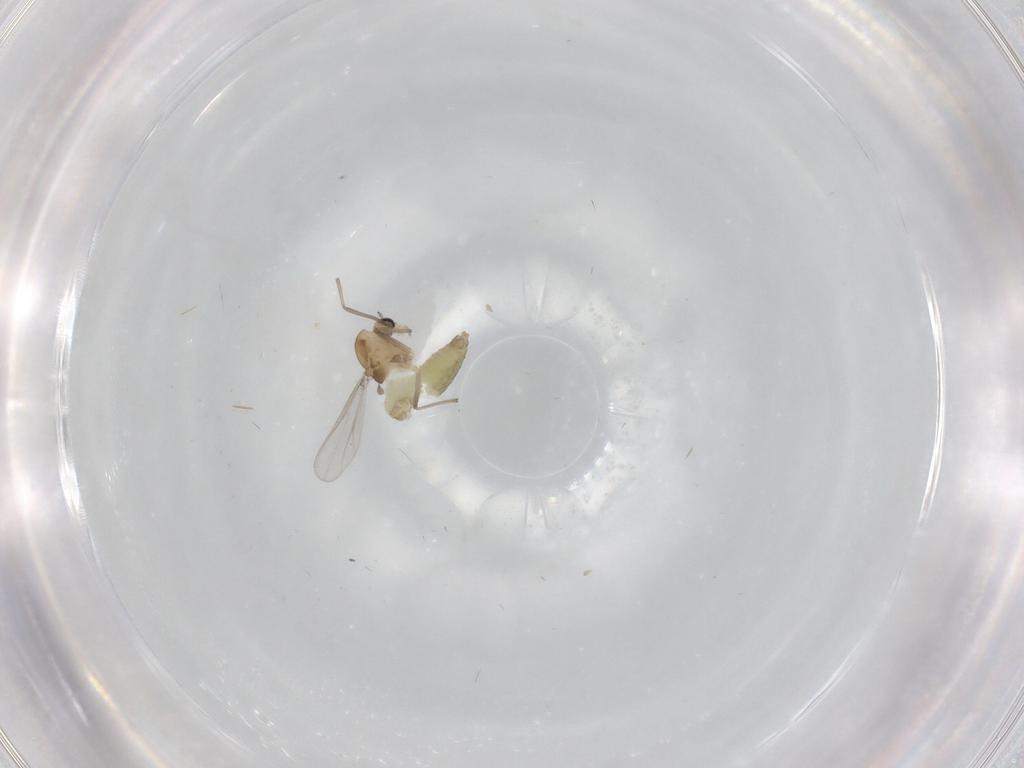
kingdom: Animalia
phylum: Arthropoda
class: Insecta
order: Diptera
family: Chironomidae
